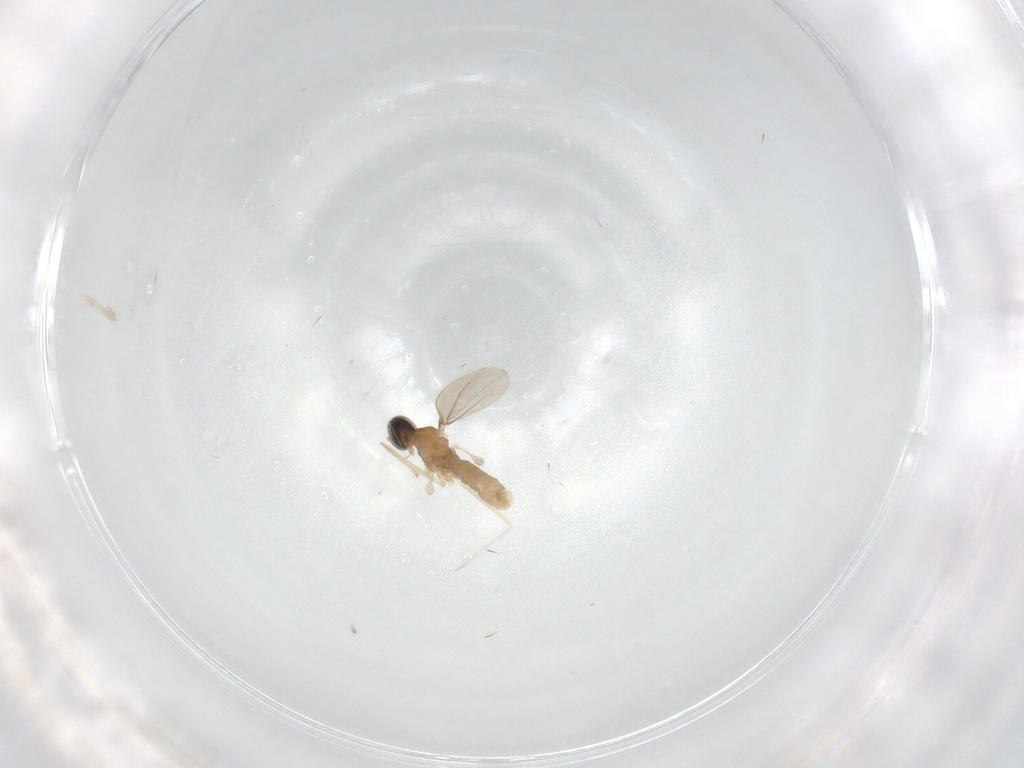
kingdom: Animalia
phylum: Arthropoda
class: Insecta
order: Diptera
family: Cecidomyiidae
